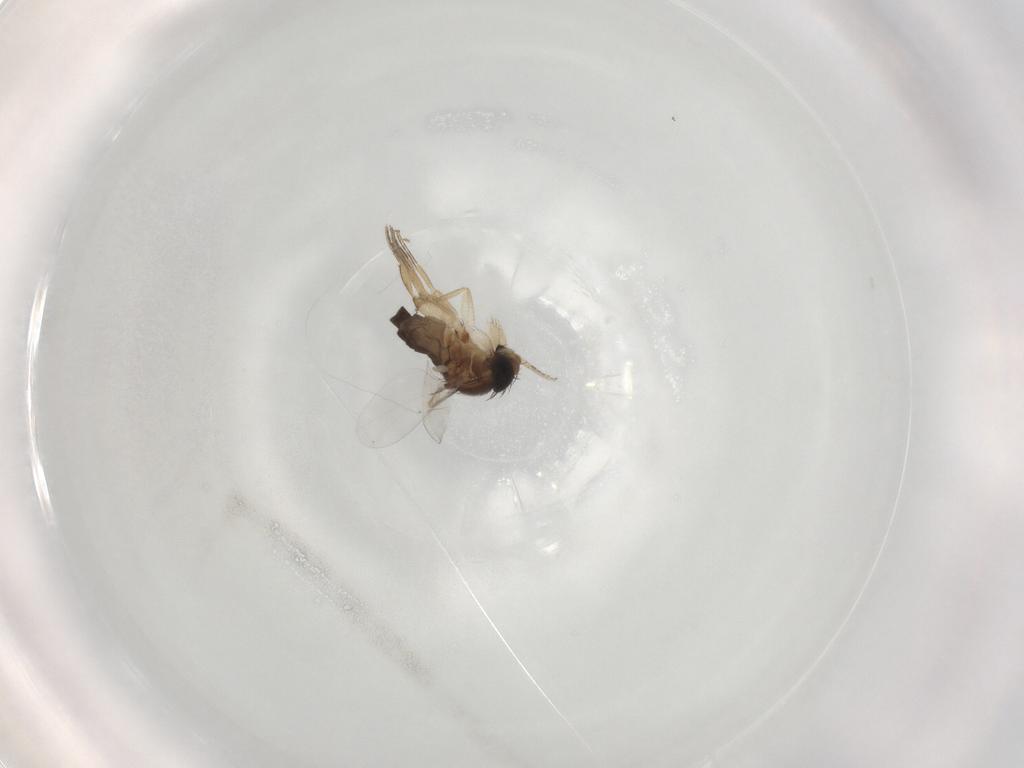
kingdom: Animalia
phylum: Arthropoda
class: Insecta
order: Diptera
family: Phoridae
